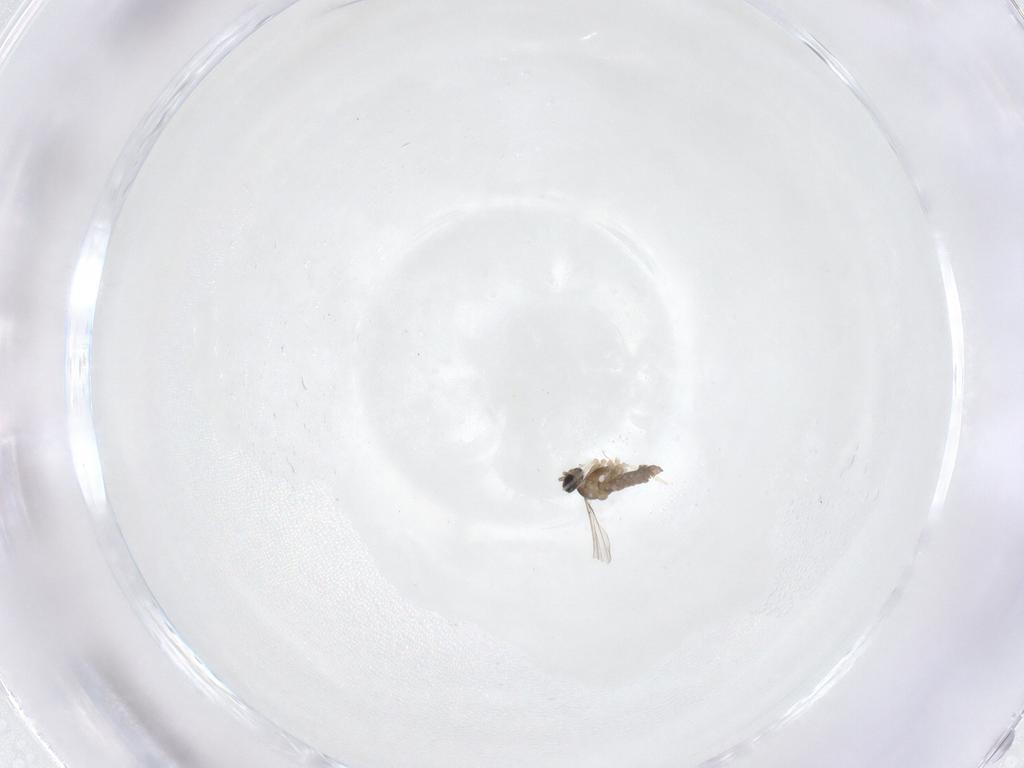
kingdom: Animalia
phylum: Arthropoda
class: Insecta
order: Diptera
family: Cecidomyiidae
